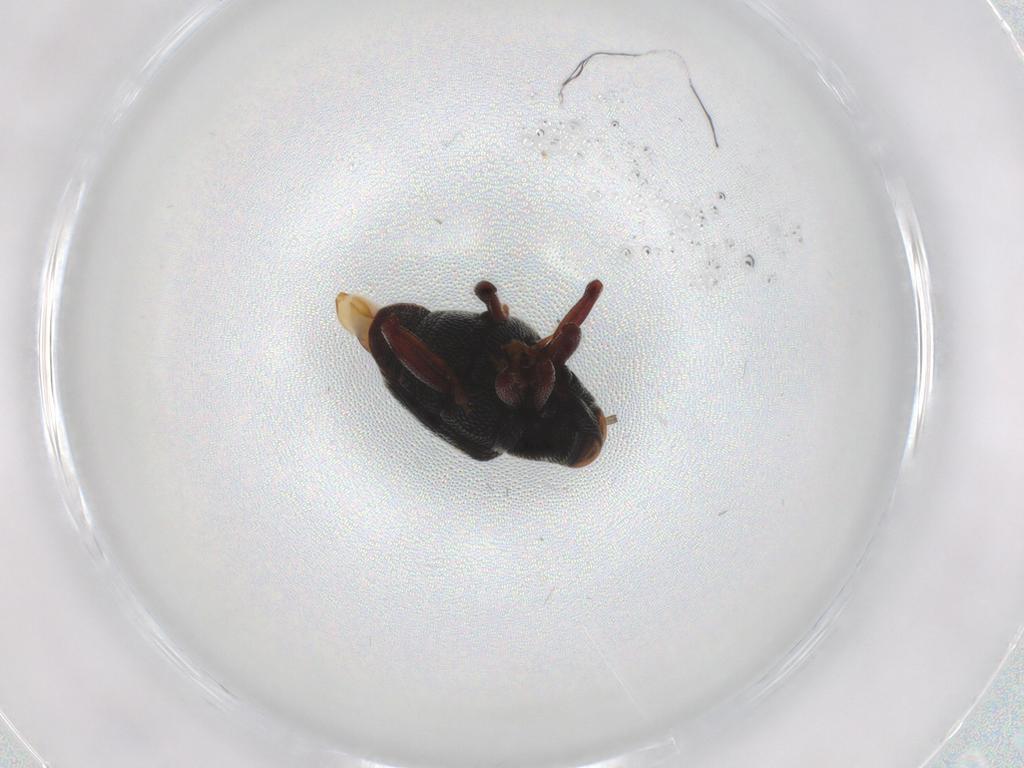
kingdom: Animalia
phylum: Arthropoda
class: Insecta
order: Coleoptera
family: Curculionidae
